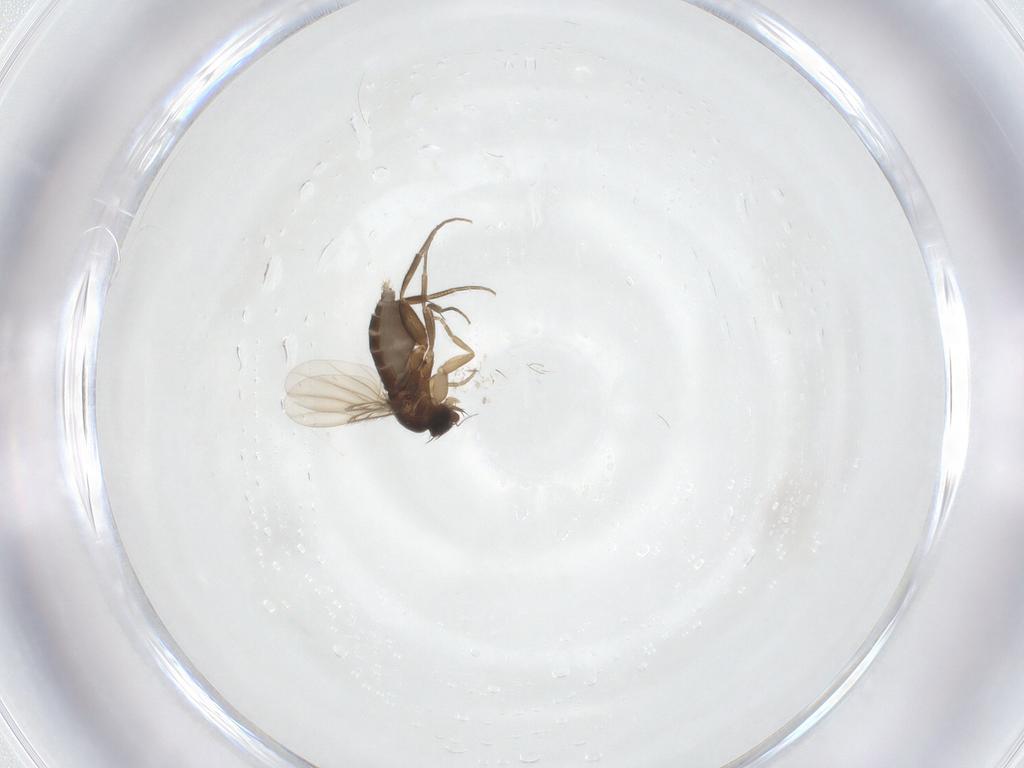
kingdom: Animalia
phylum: Arthropoda
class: Insecta
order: Diptera
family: Phoridae
